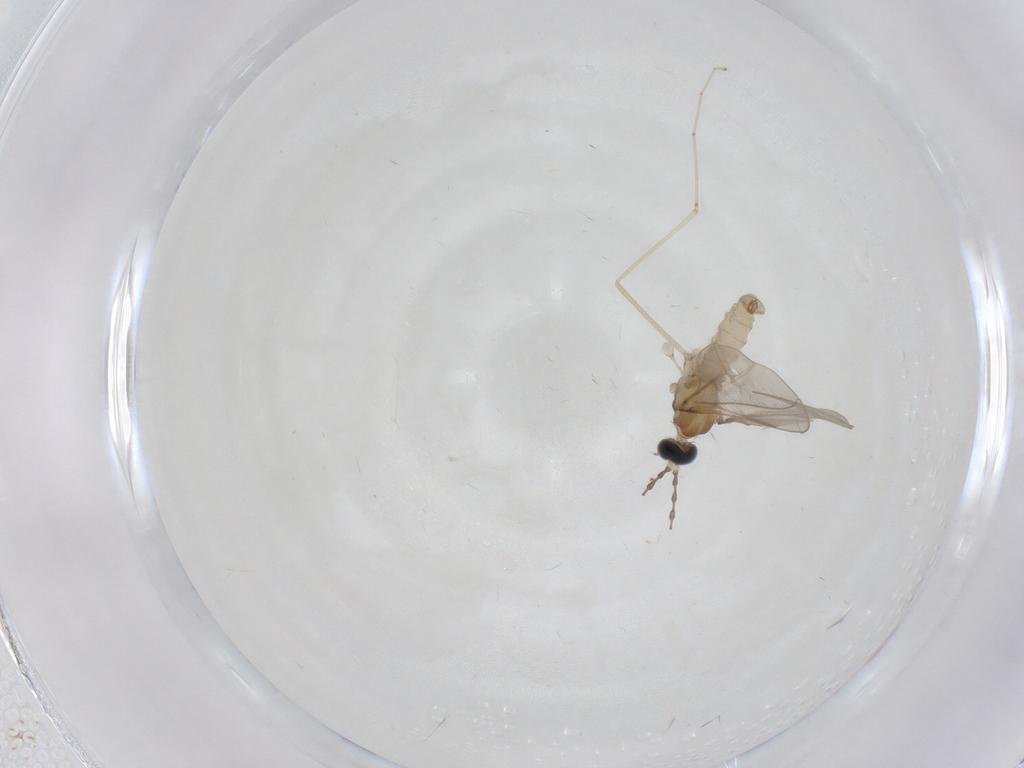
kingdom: Animalia
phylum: Arthropoda
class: Insecta
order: Diptera
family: Cecidomyiidae
